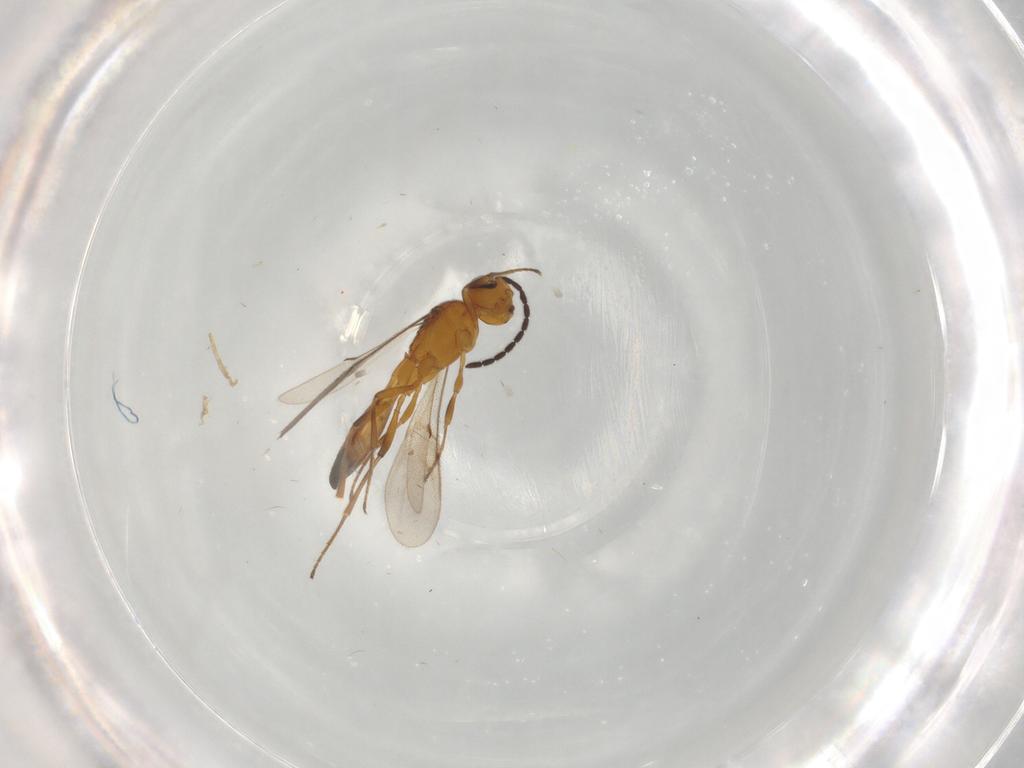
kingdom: Animalia
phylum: Arthropoda
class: Insecta
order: Hymenoptera
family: Scelionidae
